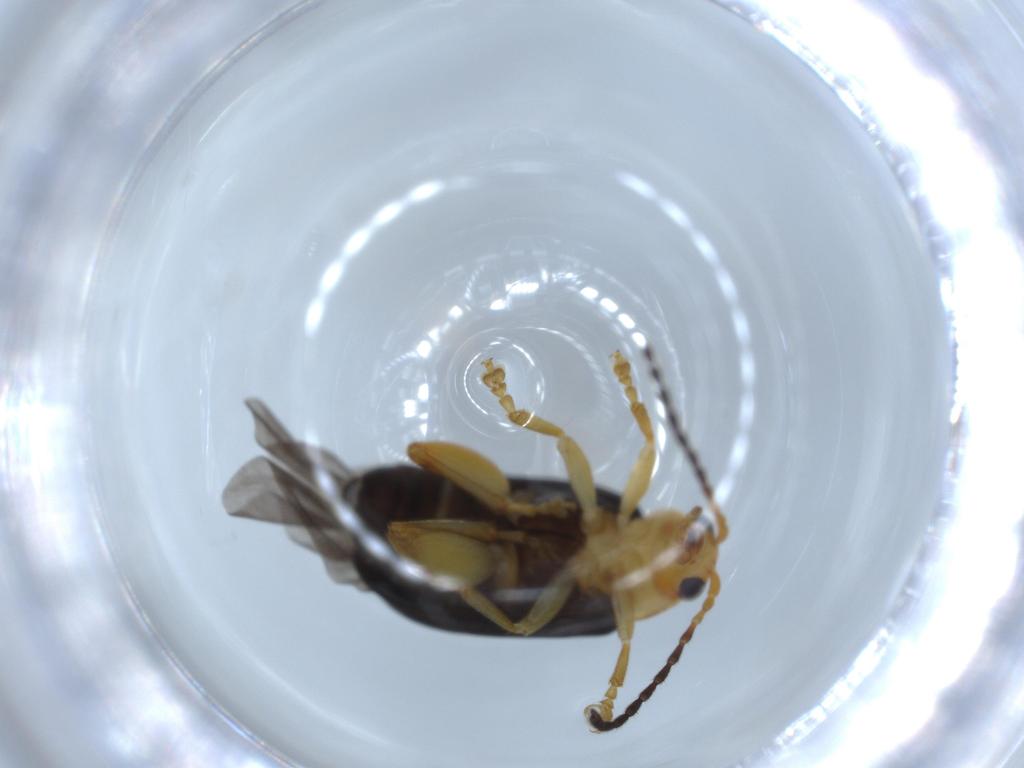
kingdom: Animalia
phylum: Arthropoda
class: Insecta
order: Coleoptera
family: Chrysomelidae
